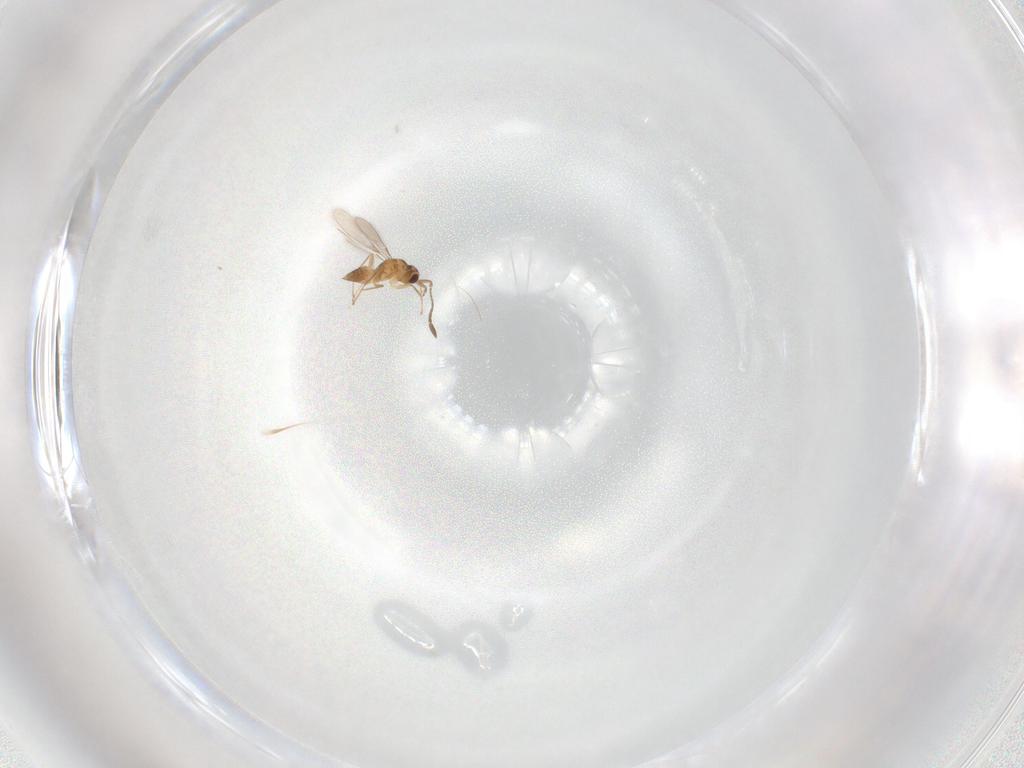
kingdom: Animalia
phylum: Arthropoda
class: Insecta
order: Hymenoptera
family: Mymaridae
